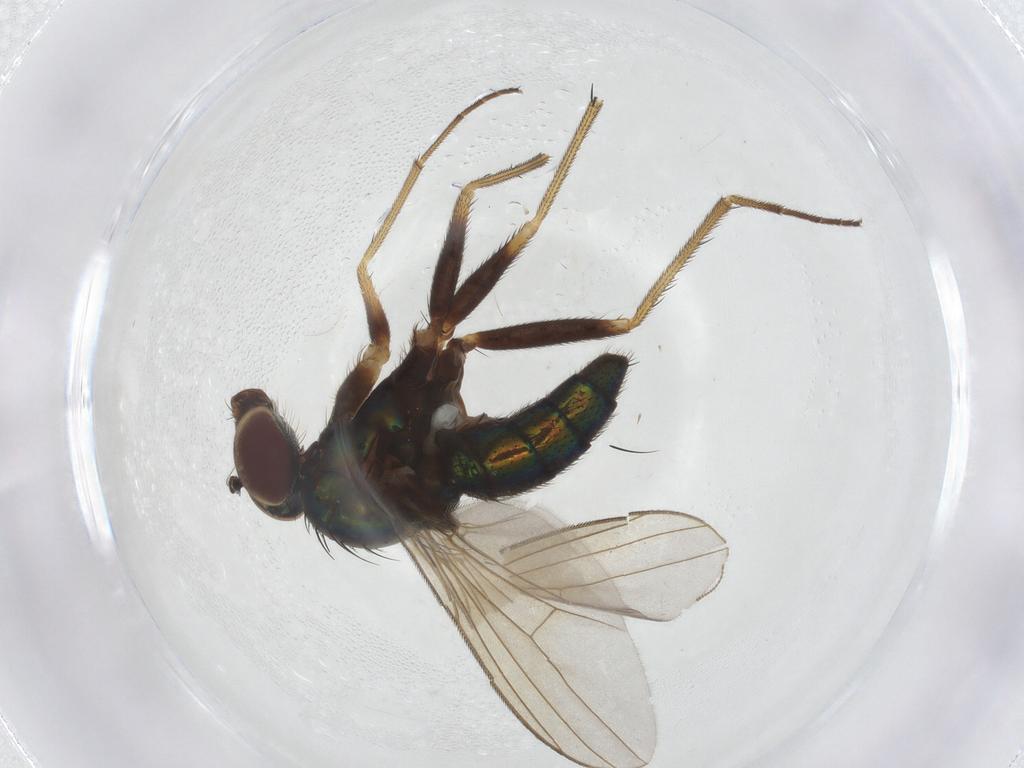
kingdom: Animalia
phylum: Arthropoda
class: Insecta
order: Diptera
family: Dolichopodidae
